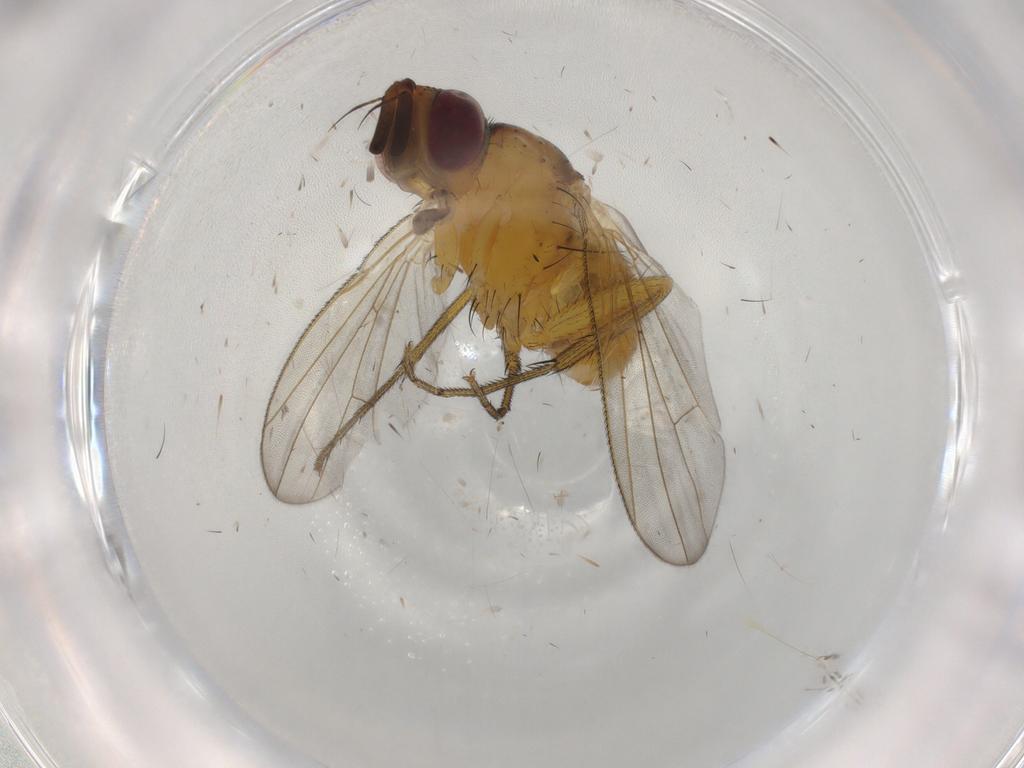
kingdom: Animalia
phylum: Arthropoda
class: Insecta
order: Diptera
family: Muscidae
